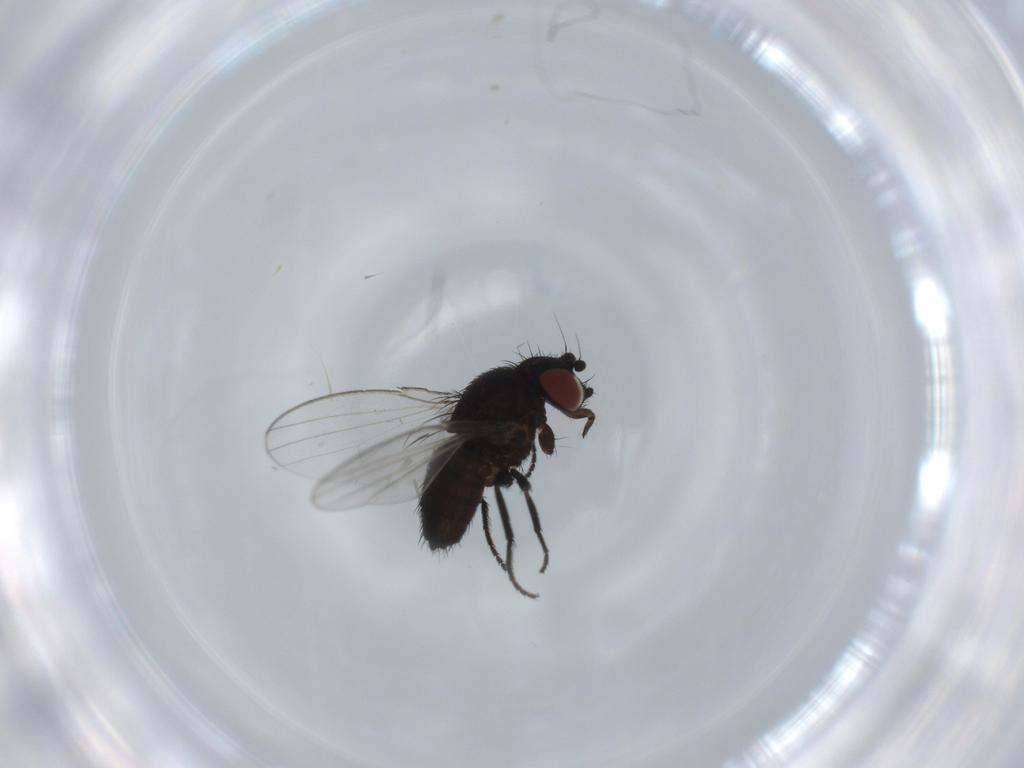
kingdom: Animalia
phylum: Arthropoda
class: Insecta
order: Diptera
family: Milichiidae
